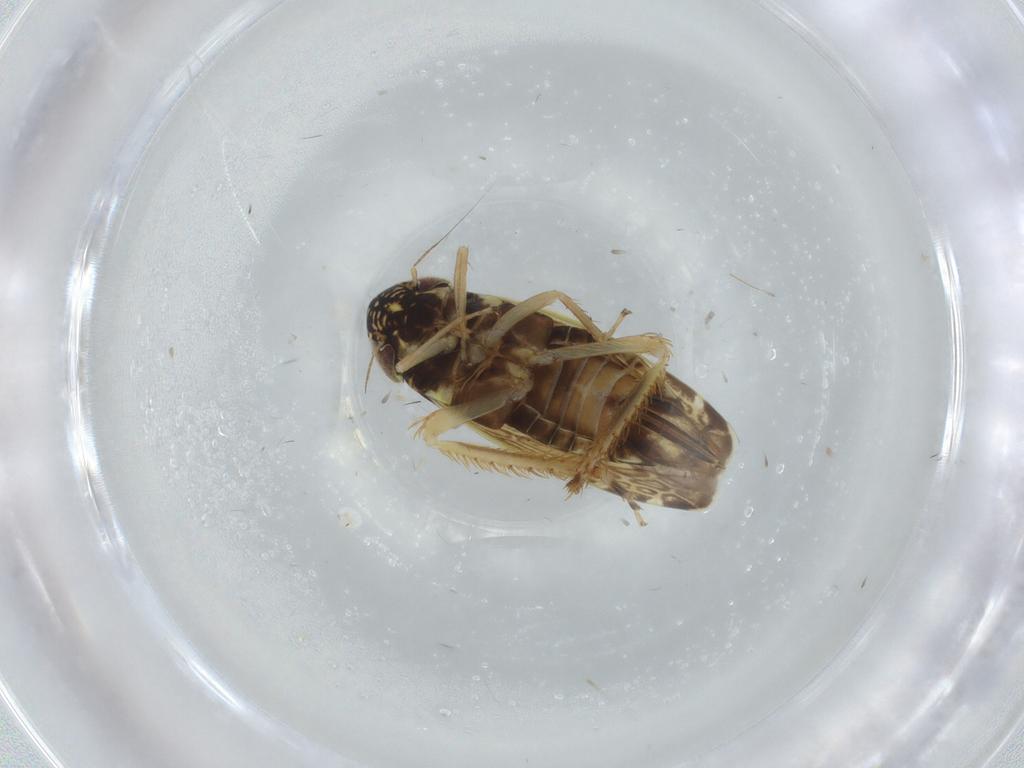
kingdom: Animalia
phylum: Arthropoda
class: Insecta
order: Hemiptera
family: Cicadellidae
